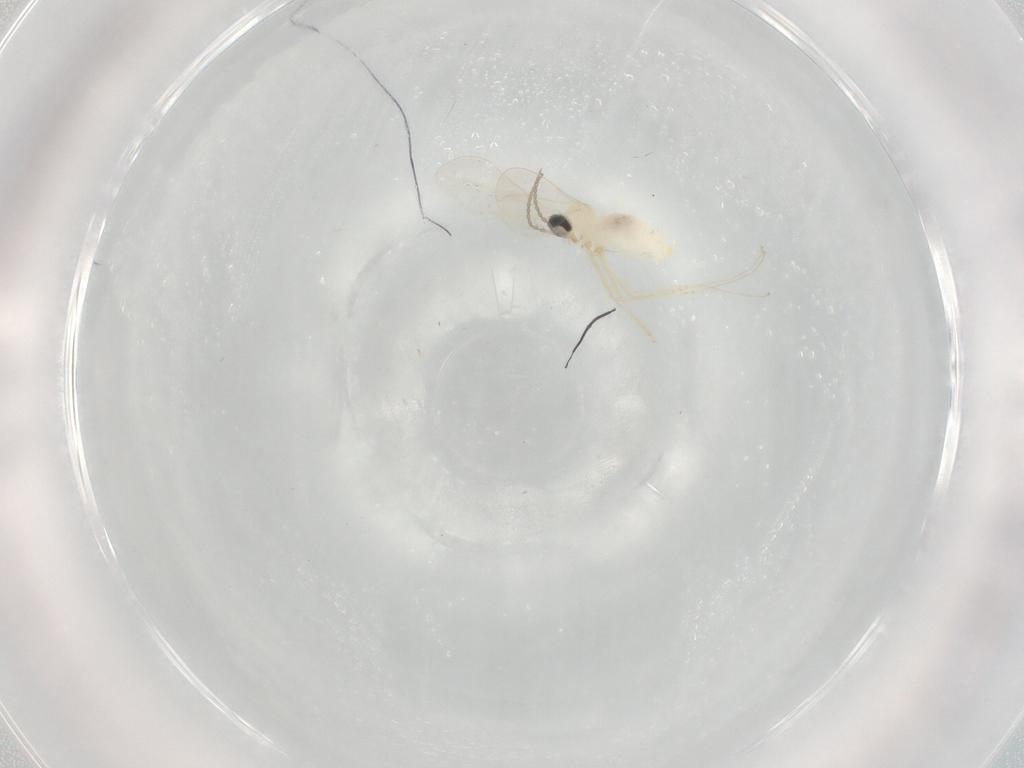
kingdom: Animalia
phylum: Arthropoda
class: Insecta
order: Diptera
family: Cecidomyiidae
